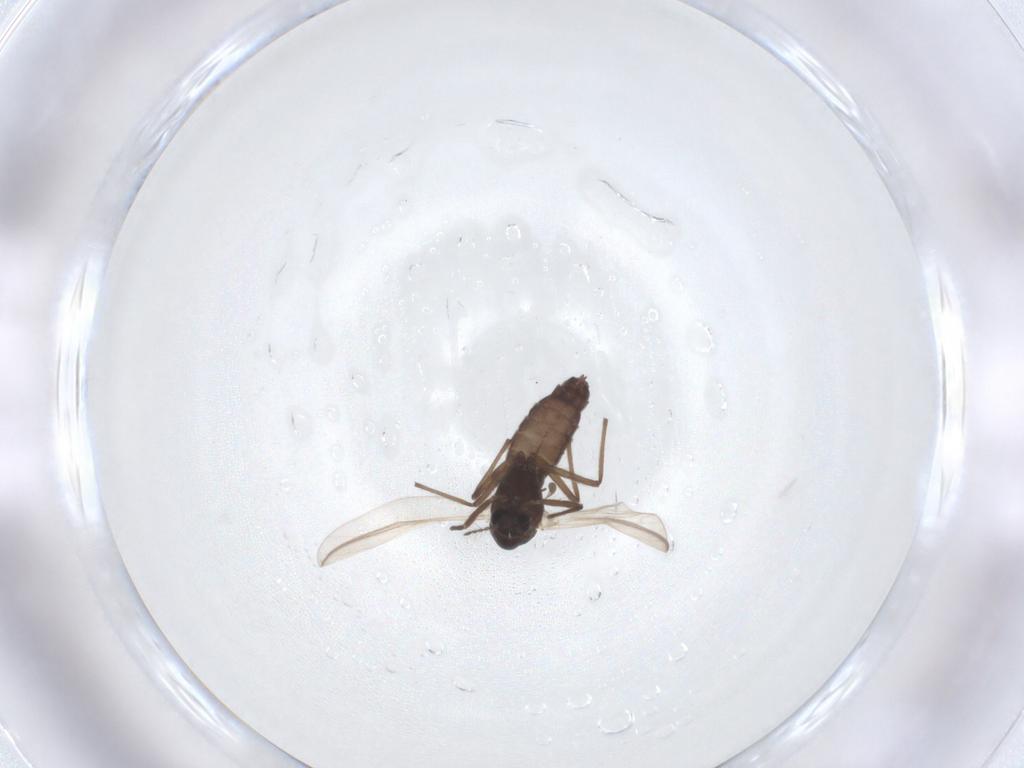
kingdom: Animalia
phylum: Arthropoda
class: Insecta
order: Diptera
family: Sciaridae
